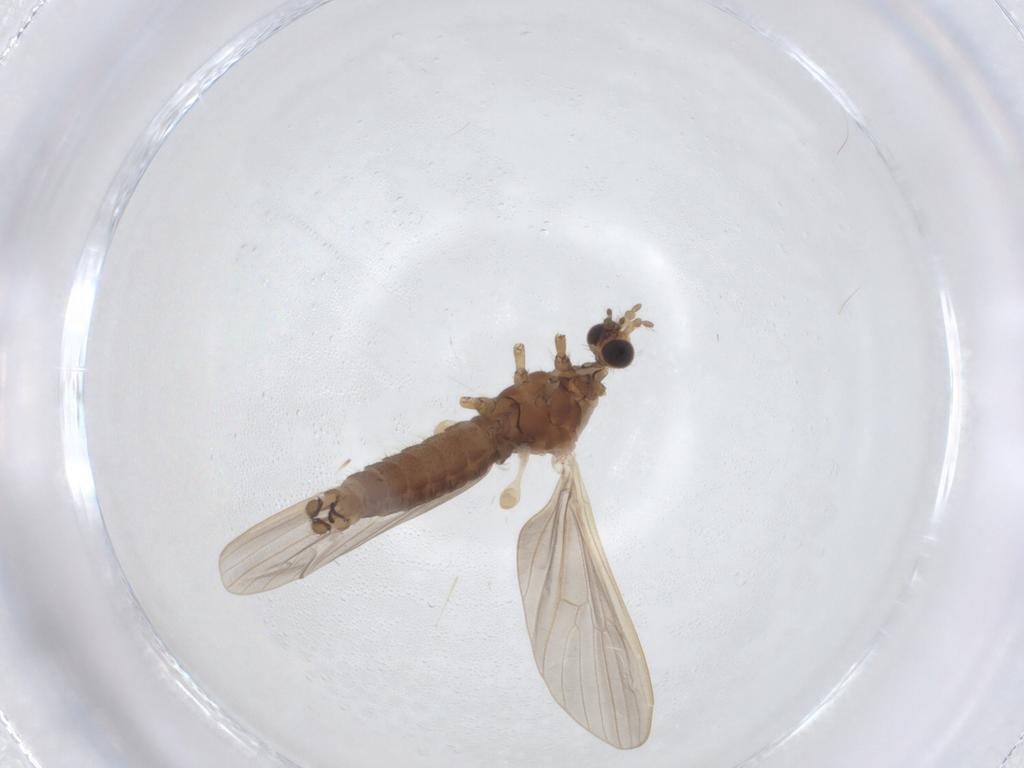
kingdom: Animalia
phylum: Arthropoda
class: Insecta
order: Diptera
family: Limoniidae
